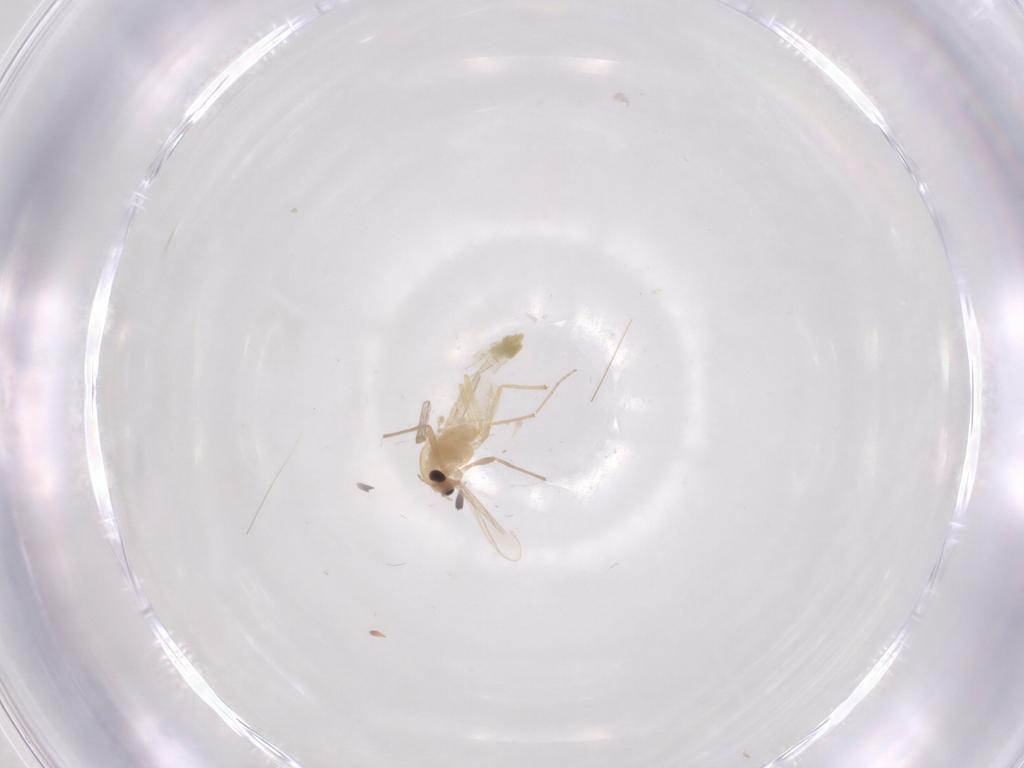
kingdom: Animalia
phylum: Arthropoda
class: Insecta
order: Diptera
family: Chironomidae
